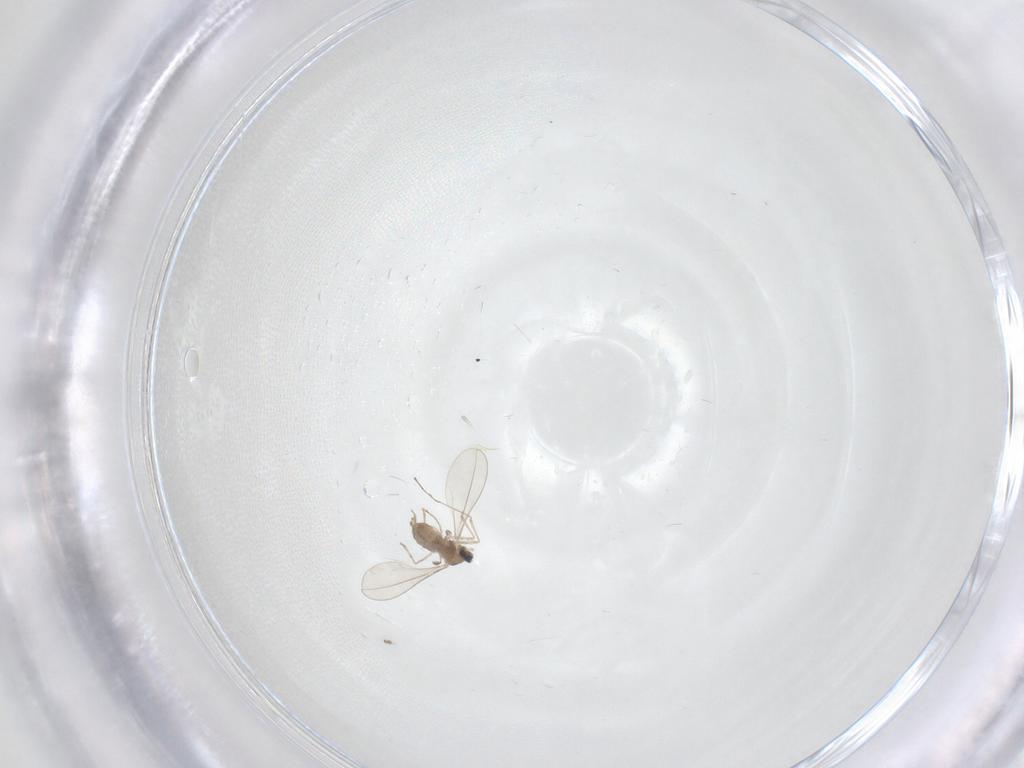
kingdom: Animalia
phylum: Arthropoda
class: Insecta
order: Diptera
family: Cecidomyiidae
